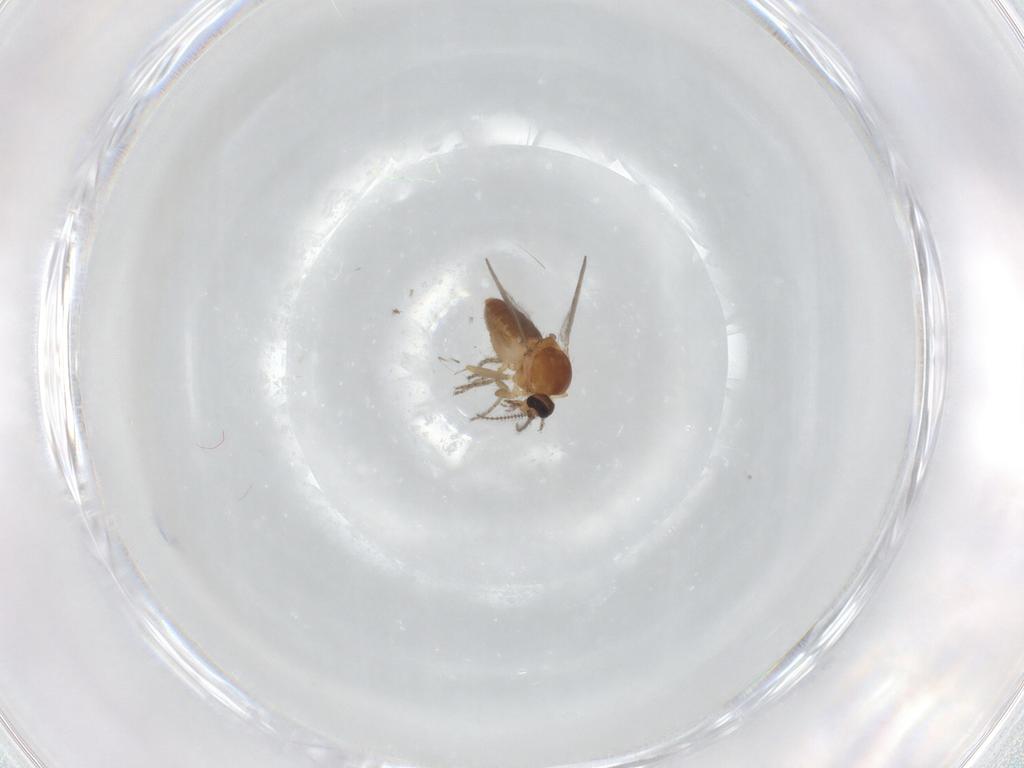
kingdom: Animalia
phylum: Arthropoda
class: Insecta
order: Diptera
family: Ceratopogonidae
